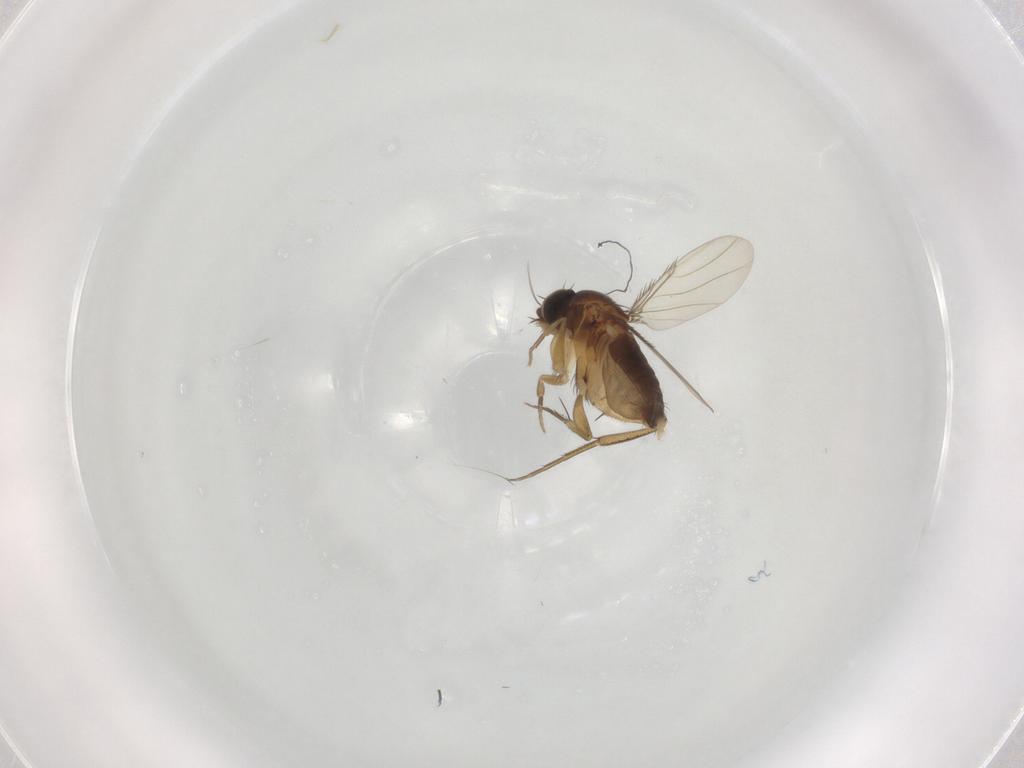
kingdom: Animalia
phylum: Arthropoda
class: Insecta
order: Diptera
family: Phoridae
